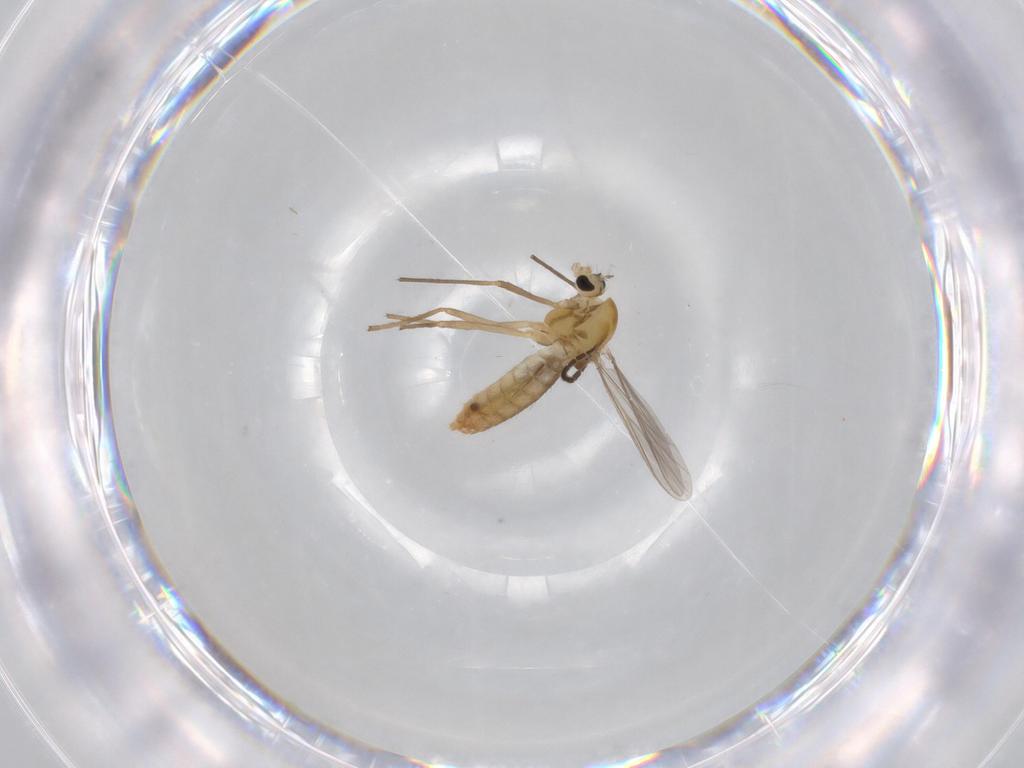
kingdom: Animalia
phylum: Arthropoda
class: Insecta
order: Diptera
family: Chironomidae
